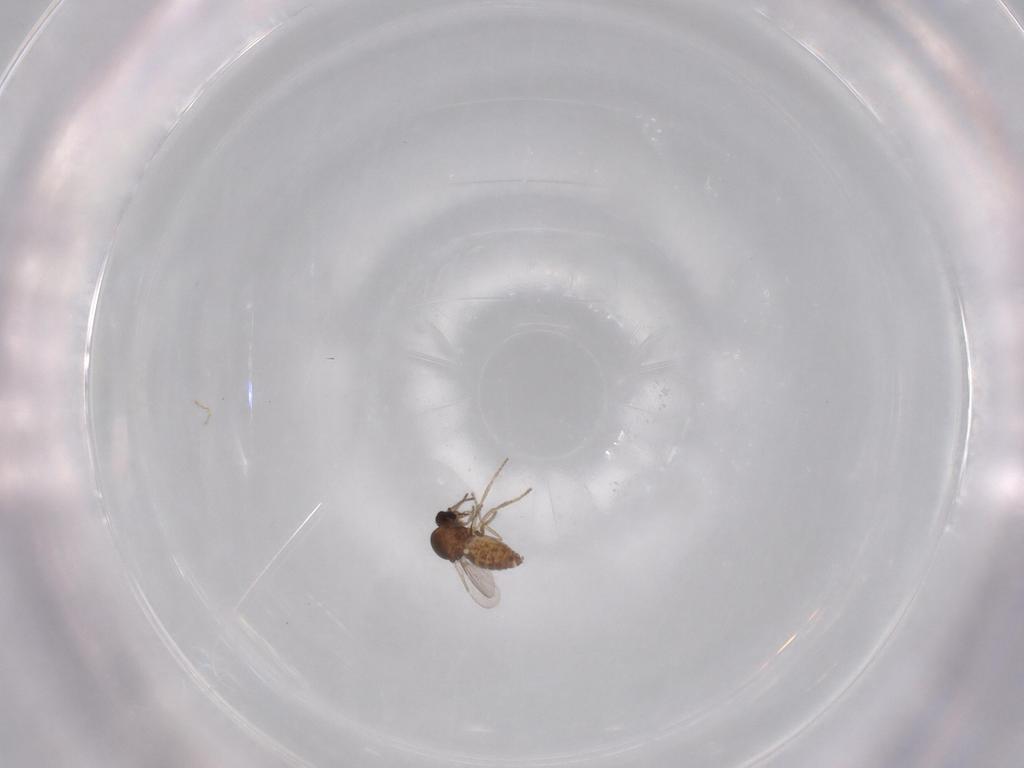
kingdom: Animalia
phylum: Arthropoda
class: Insecta
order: Diptera
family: Ceratopogonidae
